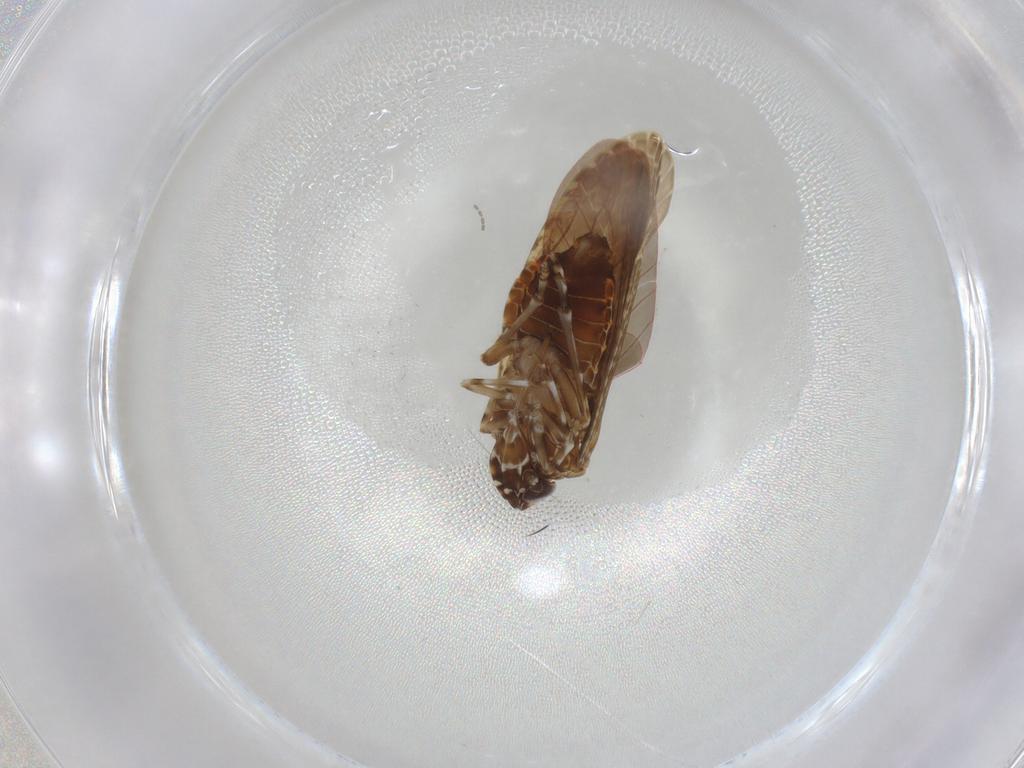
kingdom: Animalia
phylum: Arthropoda
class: Insecta
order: Hemiptera
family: Achilidae
